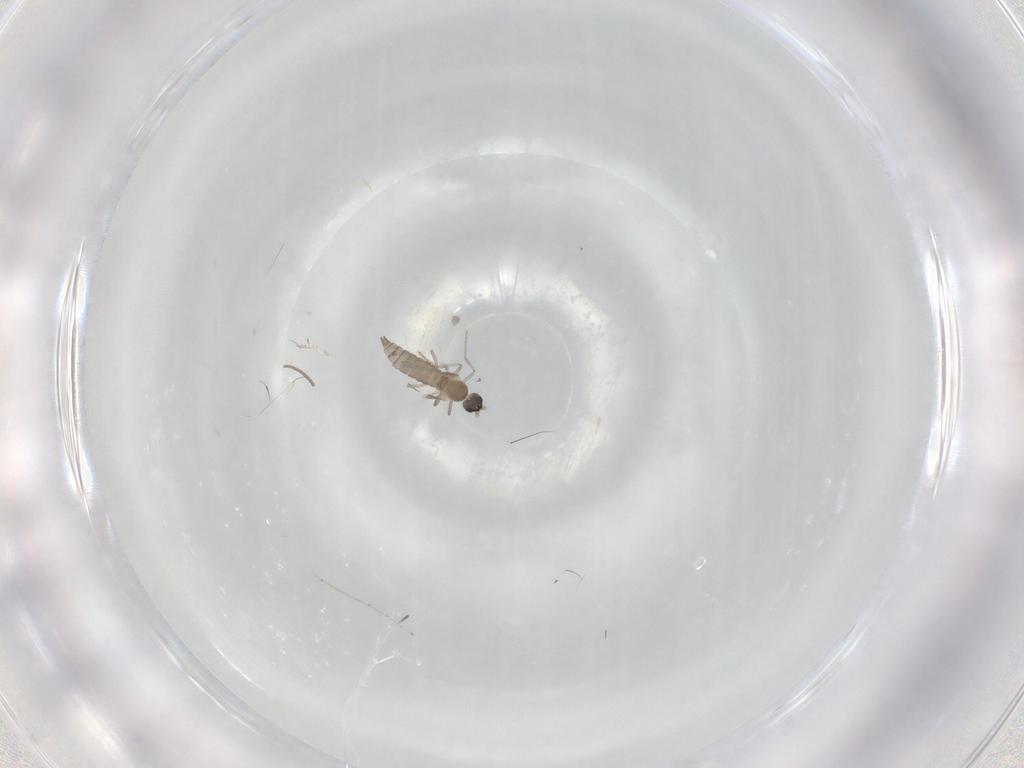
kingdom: Animalia
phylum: Arthropoda
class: Insecta
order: Diptera
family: Cecidomyiidae
